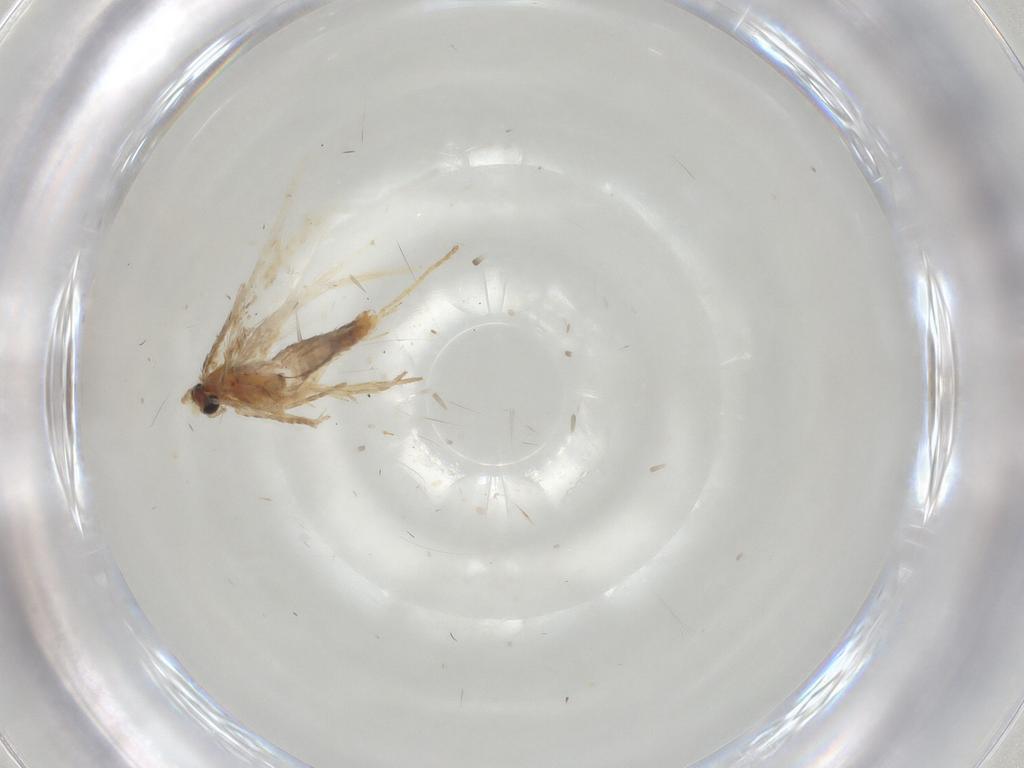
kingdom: Animalia
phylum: Arthropoda
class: Insecta
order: Lepidoptera
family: Nepticulidae
